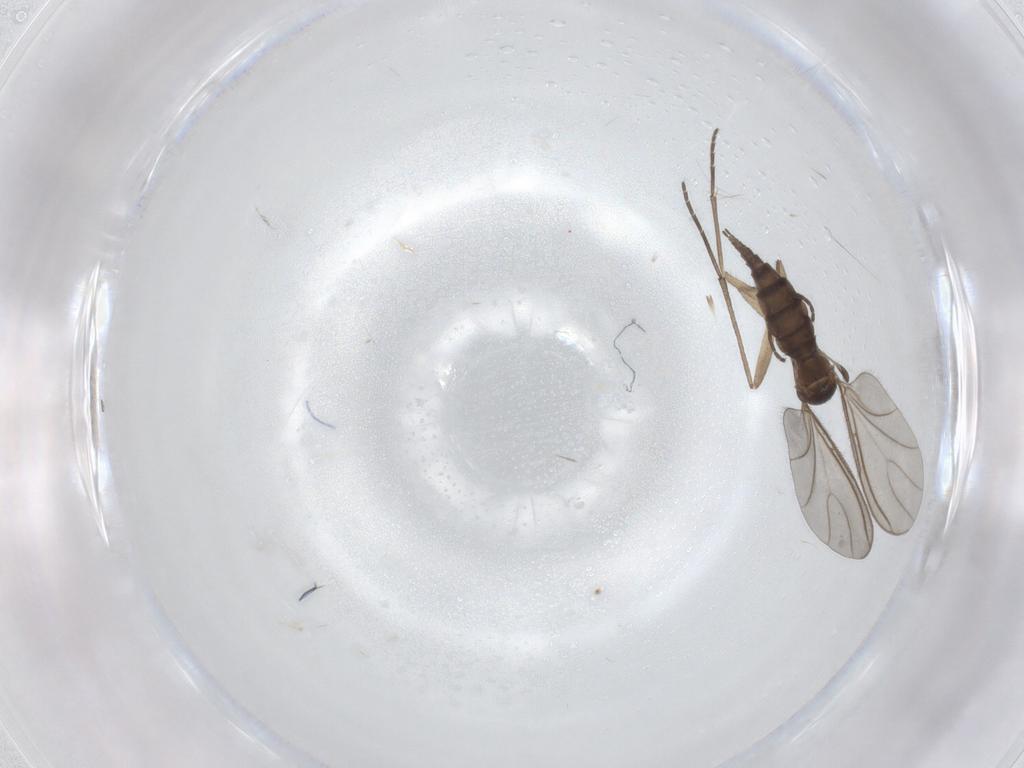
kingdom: Animalia
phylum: Arthropoda
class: Insecta
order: Diptera
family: Sciaridae
